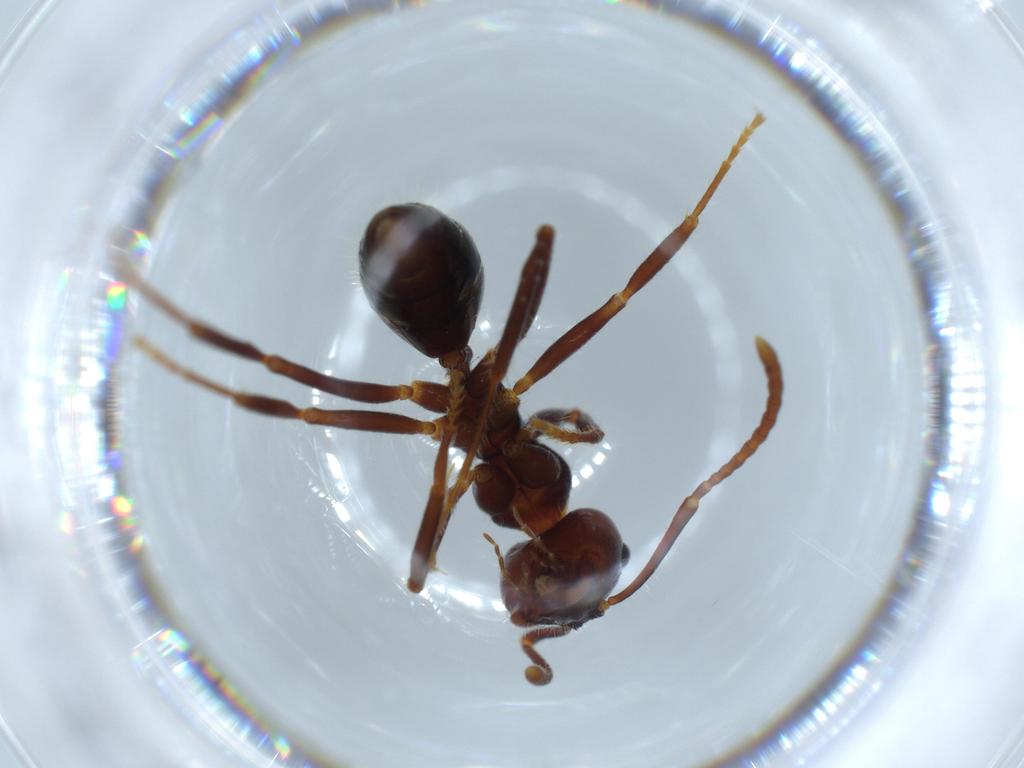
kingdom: Animalia
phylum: Arthropoda
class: Insecta
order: Hymenoptera
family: Formicidae
